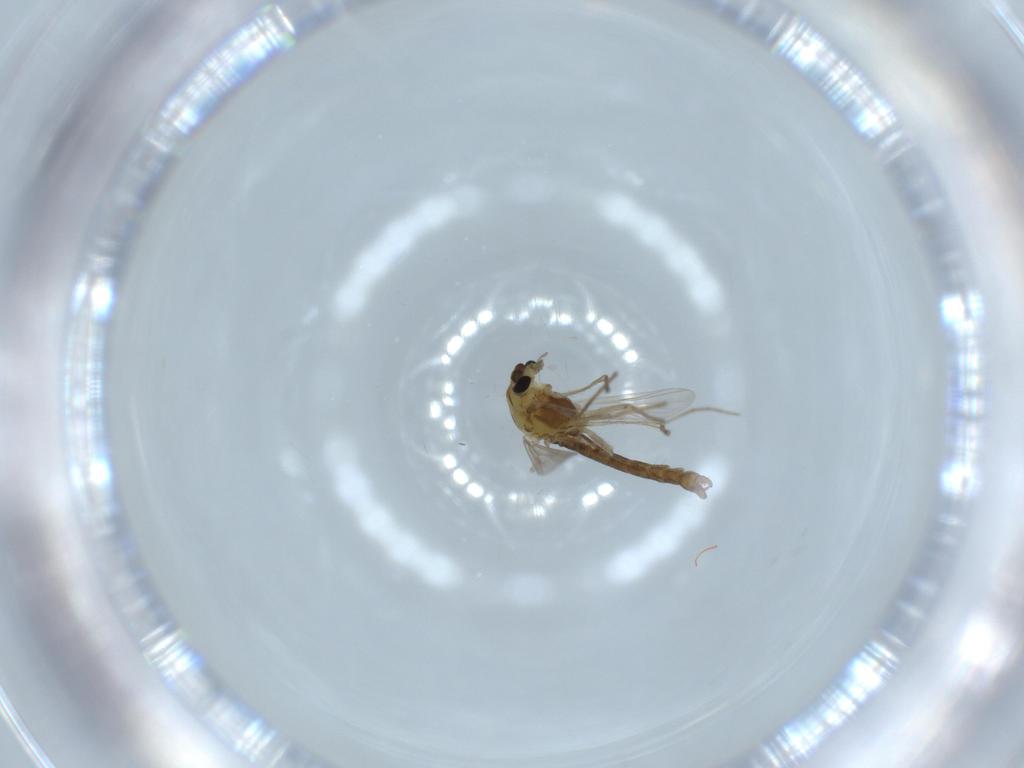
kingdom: Animalia
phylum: Arthropoda
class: Insecta
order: Diptera
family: Chironomidae
